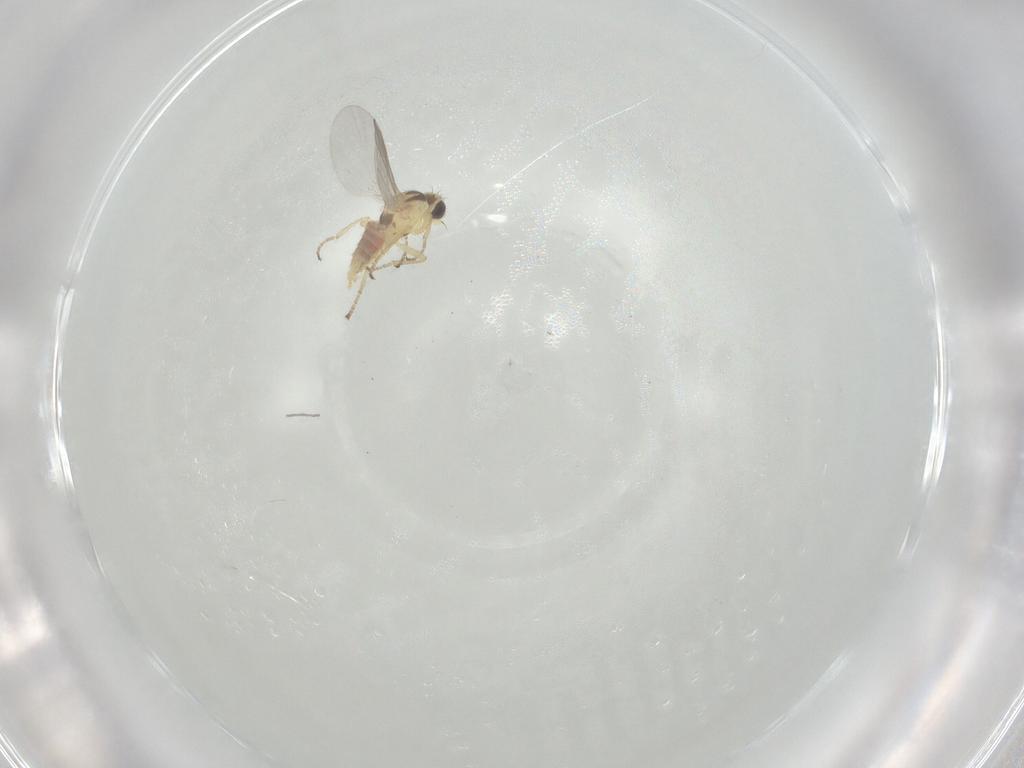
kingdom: Animalia
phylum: Arthropoda
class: Insecta
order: Diptera
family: Agromyzidae
